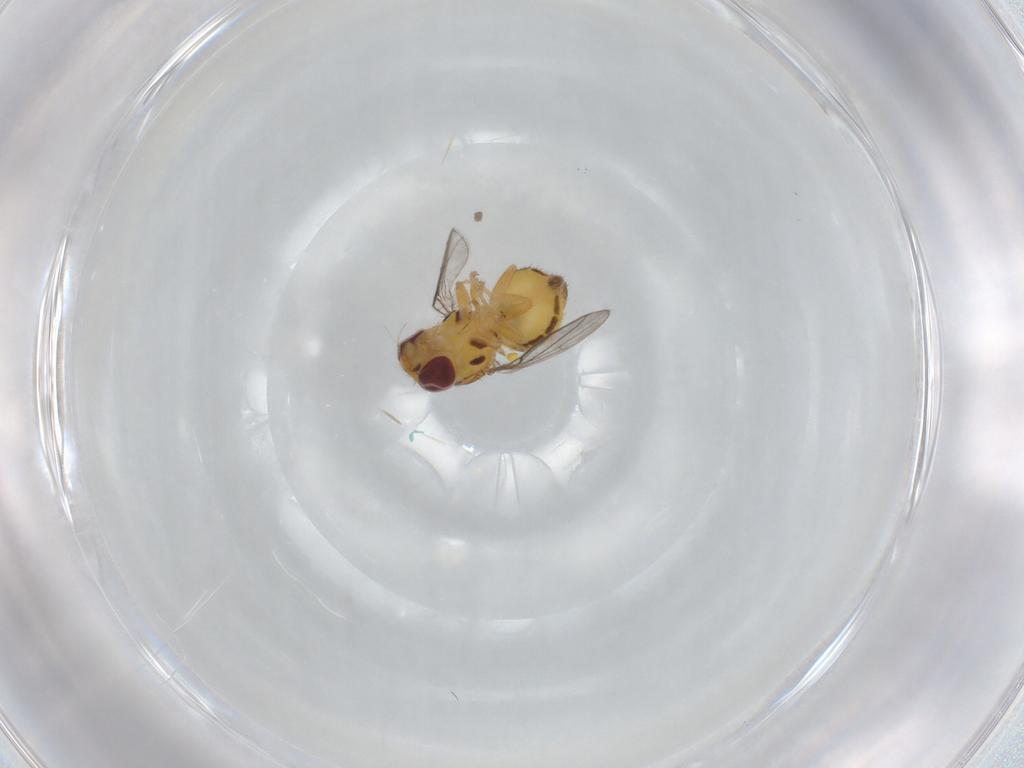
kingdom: Animalia
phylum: Arthropoda
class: Insecta
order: Diptera
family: Chloropidae
